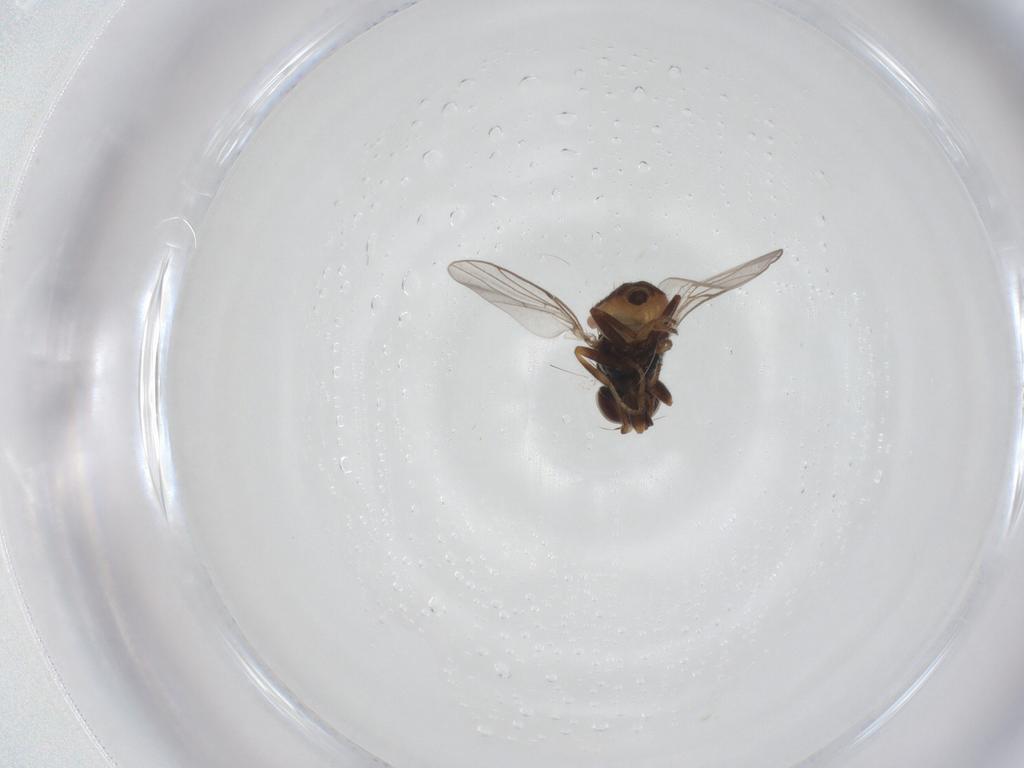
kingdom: Animalia
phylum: Arthropoda
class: Insecta
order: Diptera
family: Chloropidae
